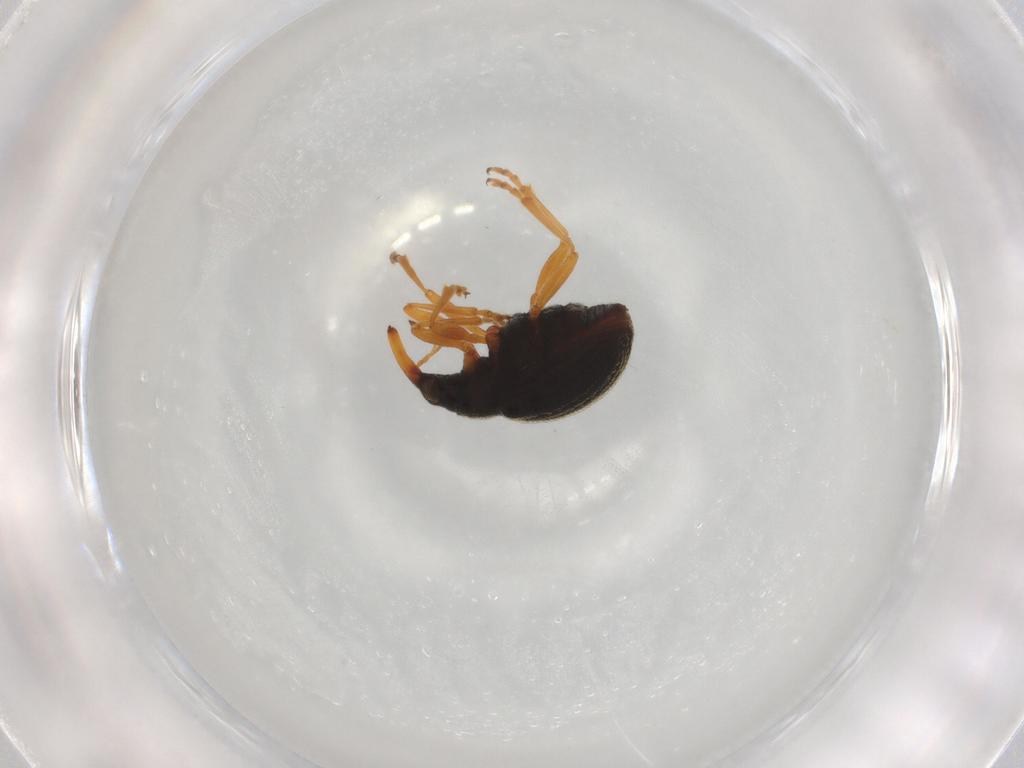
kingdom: Animalia
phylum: Arthropoda
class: Insecta
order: Coleoptera
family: Brentidae
